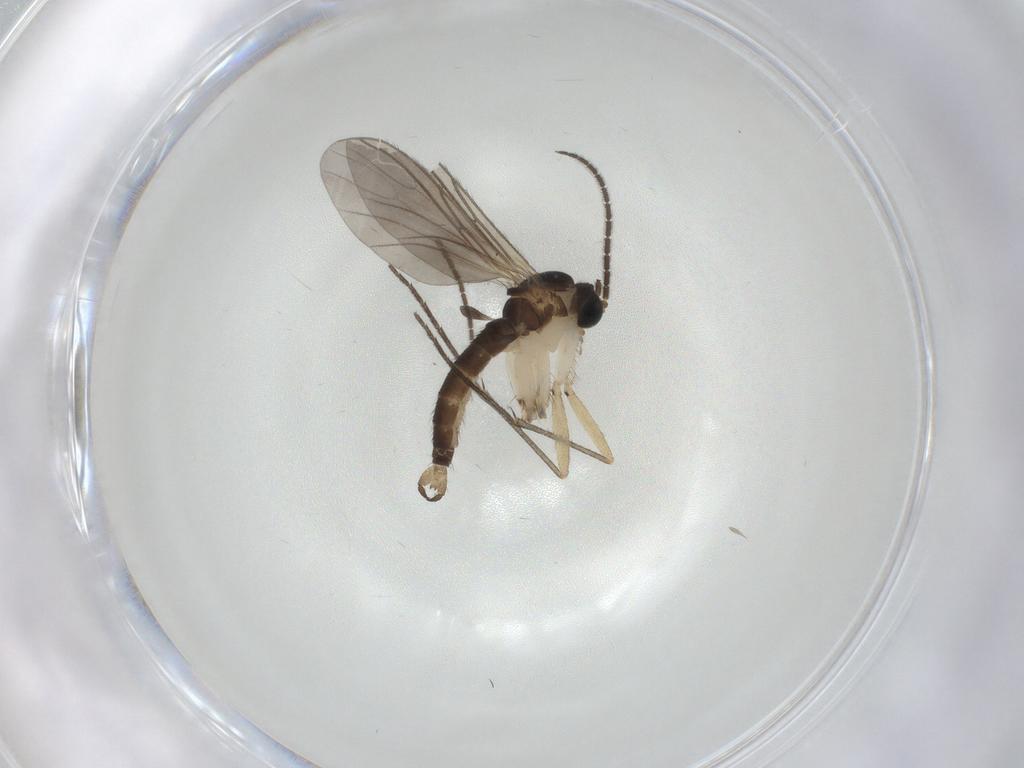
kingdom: Animalia
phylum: Arthropoda
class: Insecta
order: Diptera
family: Sciaridae
